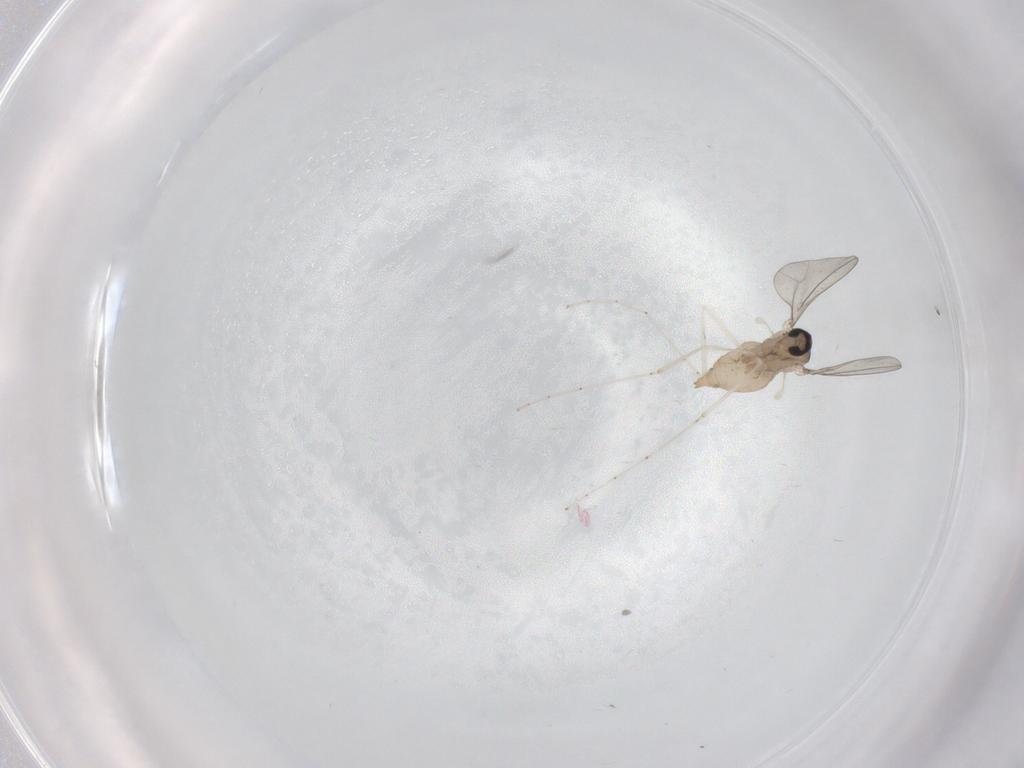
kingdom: Animalia
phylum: Arthropoda
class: Insecta
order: Diptera
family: Cecidomyiidae
